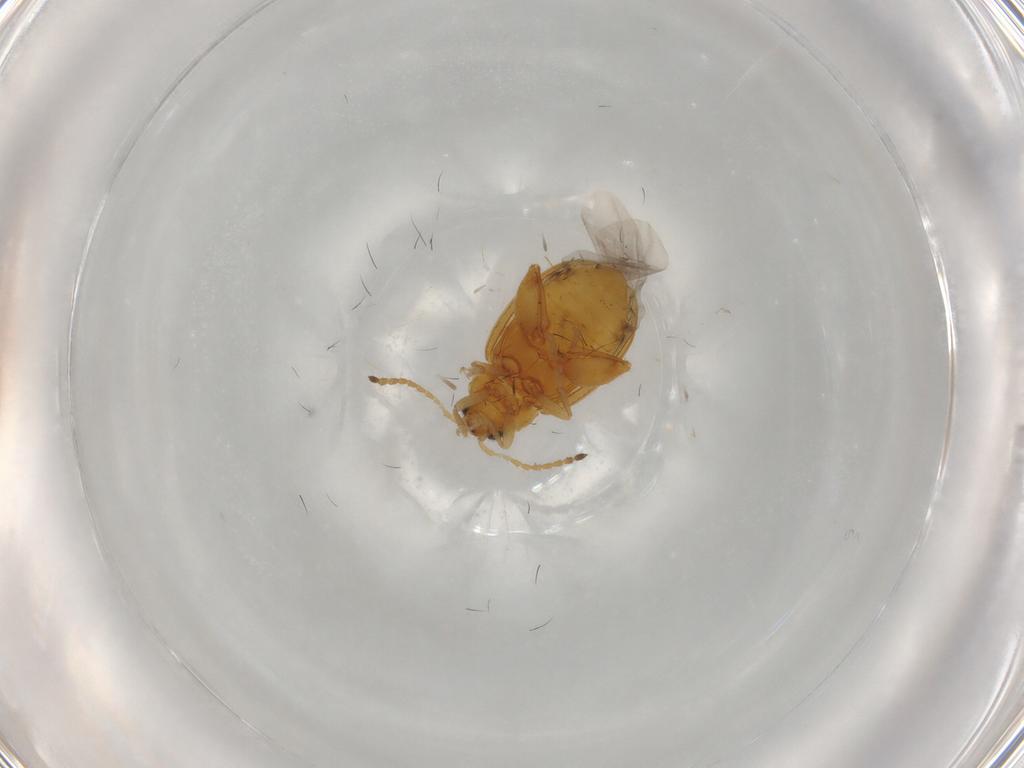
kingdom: Animalia
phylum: Arthropoda
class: Insecta
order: Coleoptera
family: Chrysomelidae
